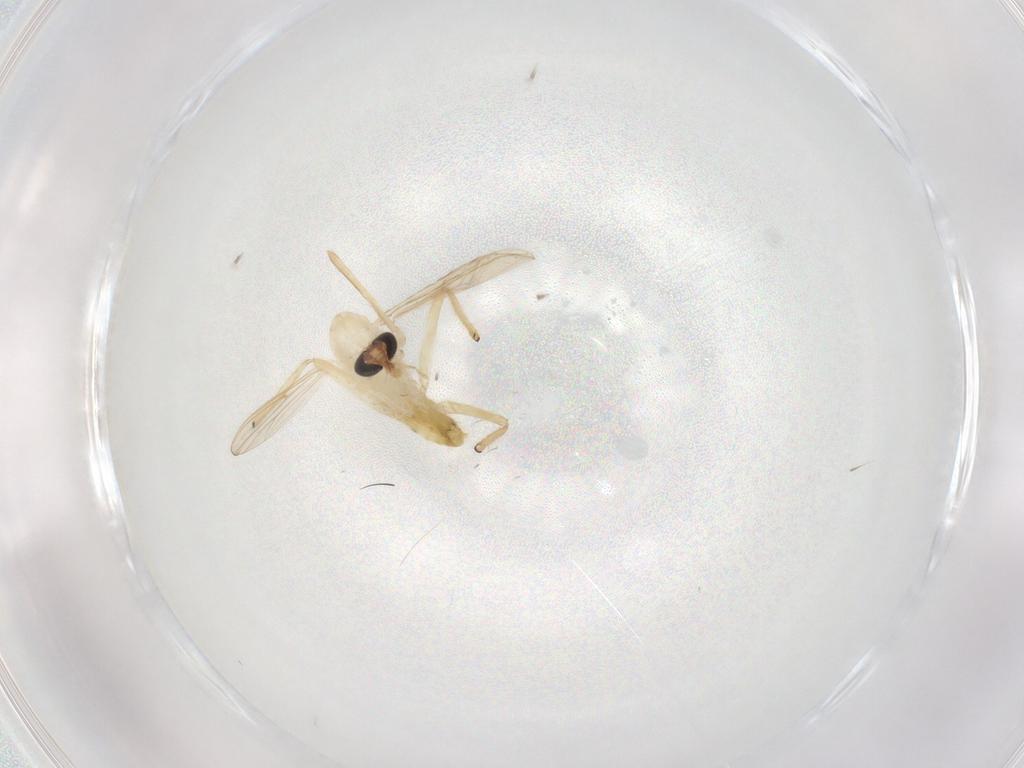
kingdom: Animalia
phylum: Arthropoda
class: Insecta
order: Diptera
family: Chironomidae
